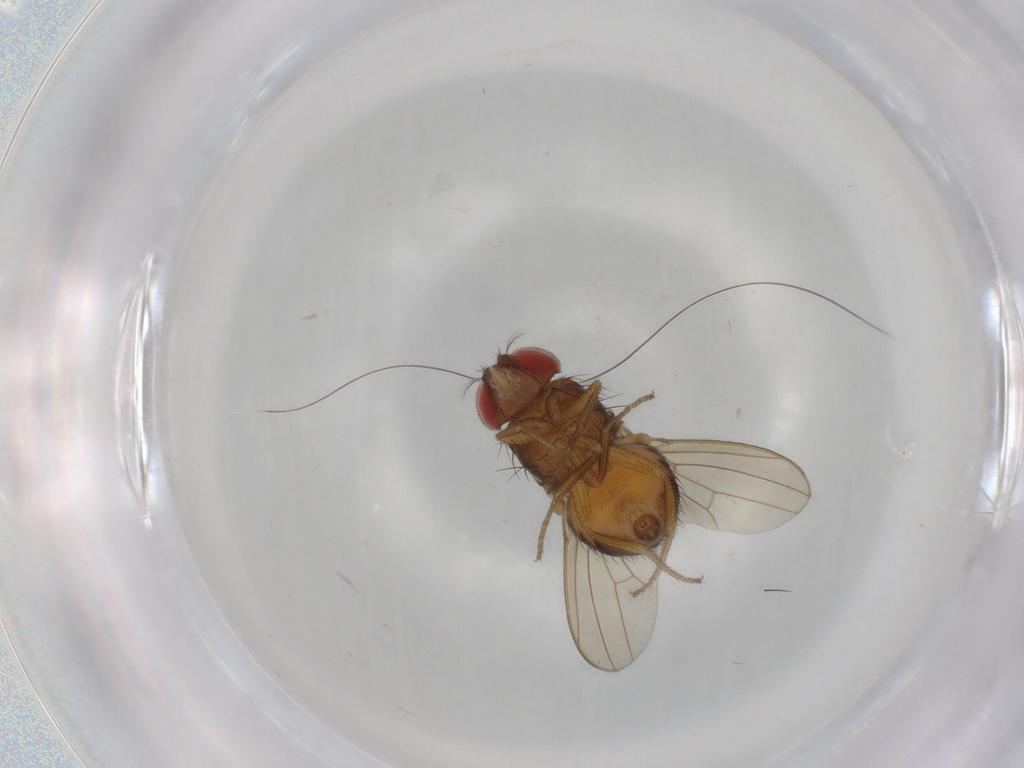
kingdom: Animalia
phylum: Arthropoda
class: Insecta
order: Diptera
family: Drosophilidae
